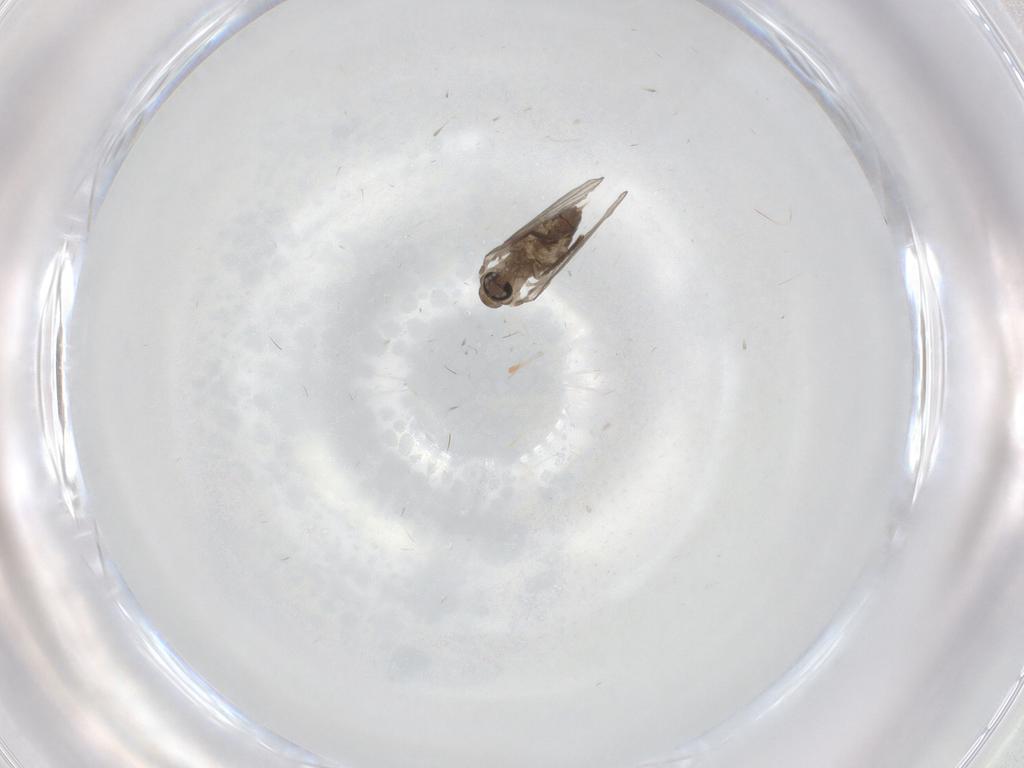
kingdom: Animalia
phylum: Arthropoda
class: Insecta
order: Diptera
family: Chironomidae
